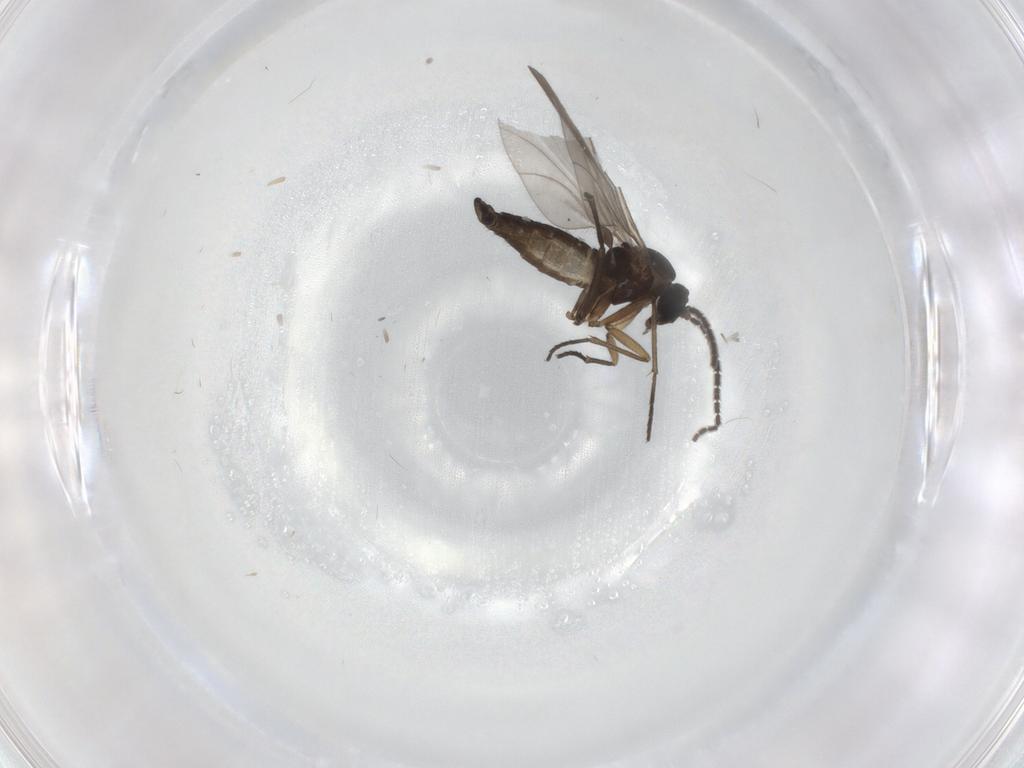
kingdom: Animalia
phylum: Arthropoda
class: Insecta
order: Diptera
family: Sciaridae
